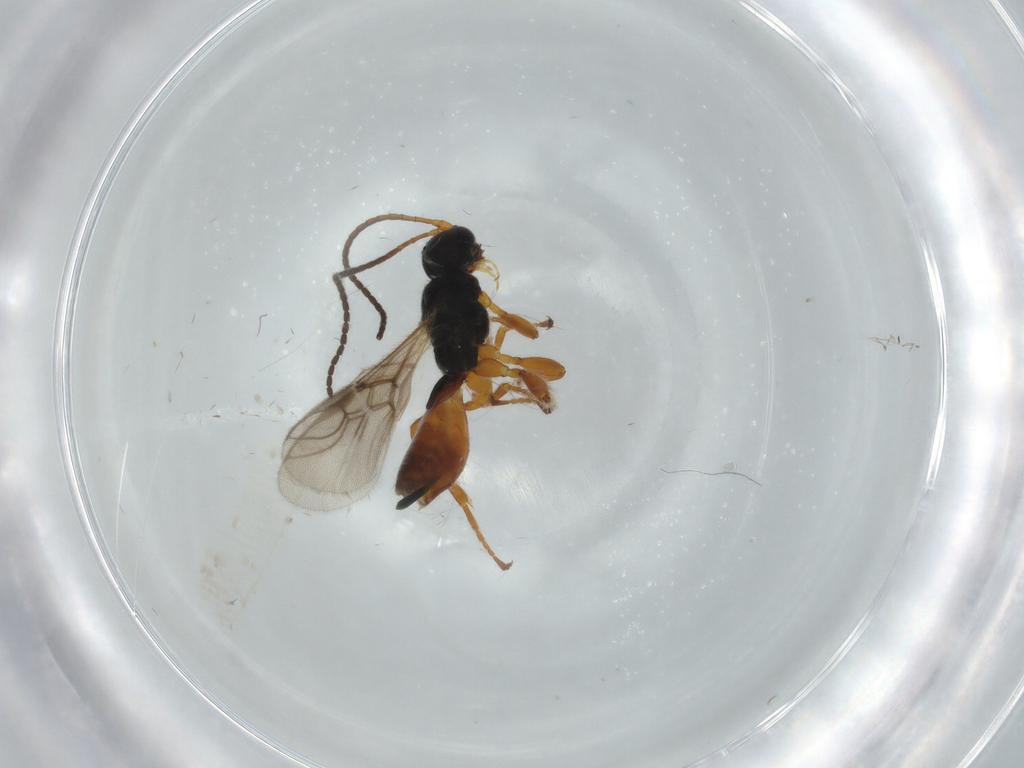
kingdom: Animalia
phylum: Arthropoda
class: Insecta
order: Hymenoptera
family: Braconidae
